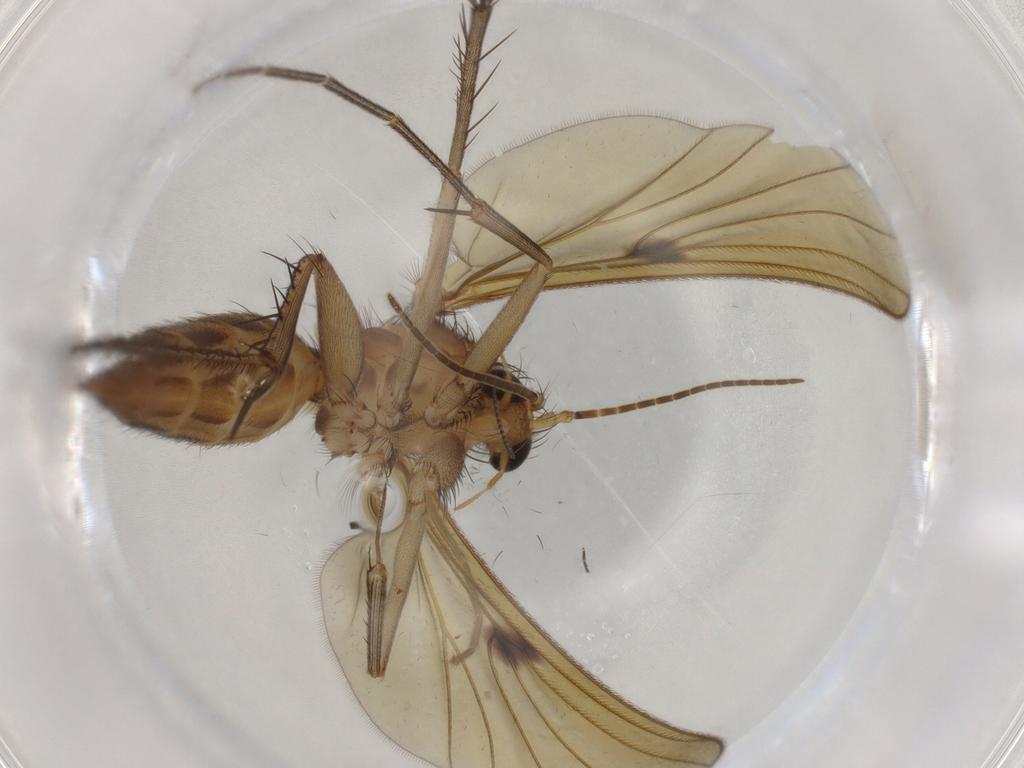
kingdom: Animalia
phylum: Arthropoda
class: Insecta
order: Diptera
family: Mycetophilidae
